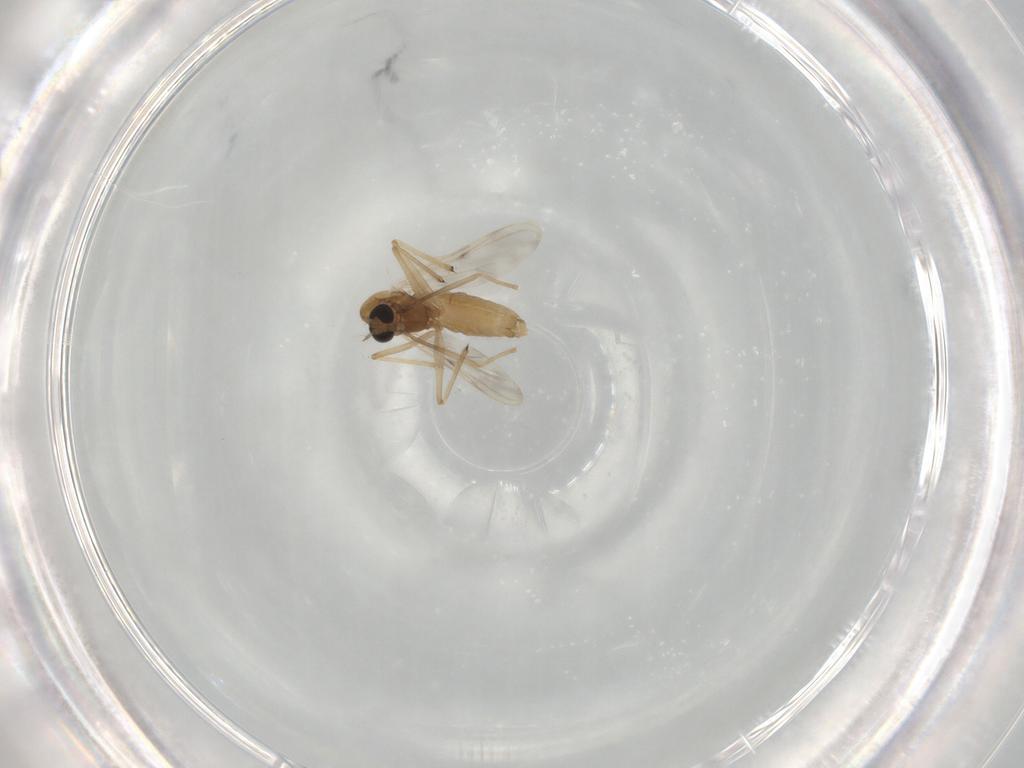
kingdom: Animalia
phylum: Arthropoda
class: Insecta
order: Diptera
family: Chironomidae
